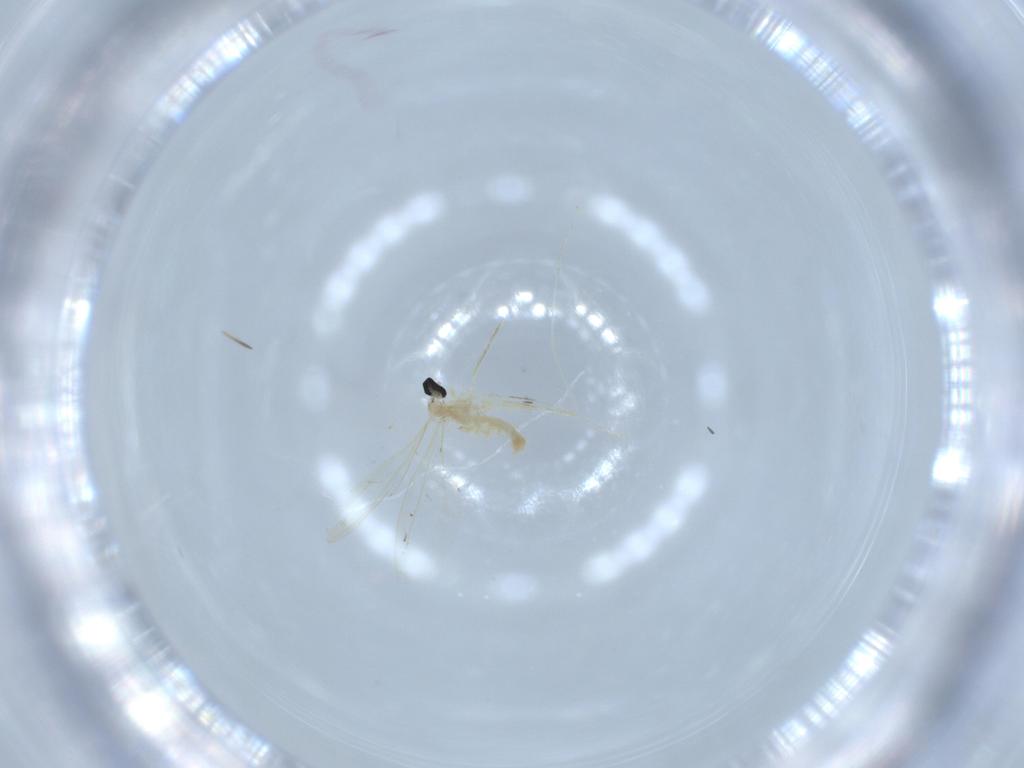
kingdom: Animalia
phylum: Arthropoda
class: Insecta
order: Diptera
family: Cecidomyiidae
